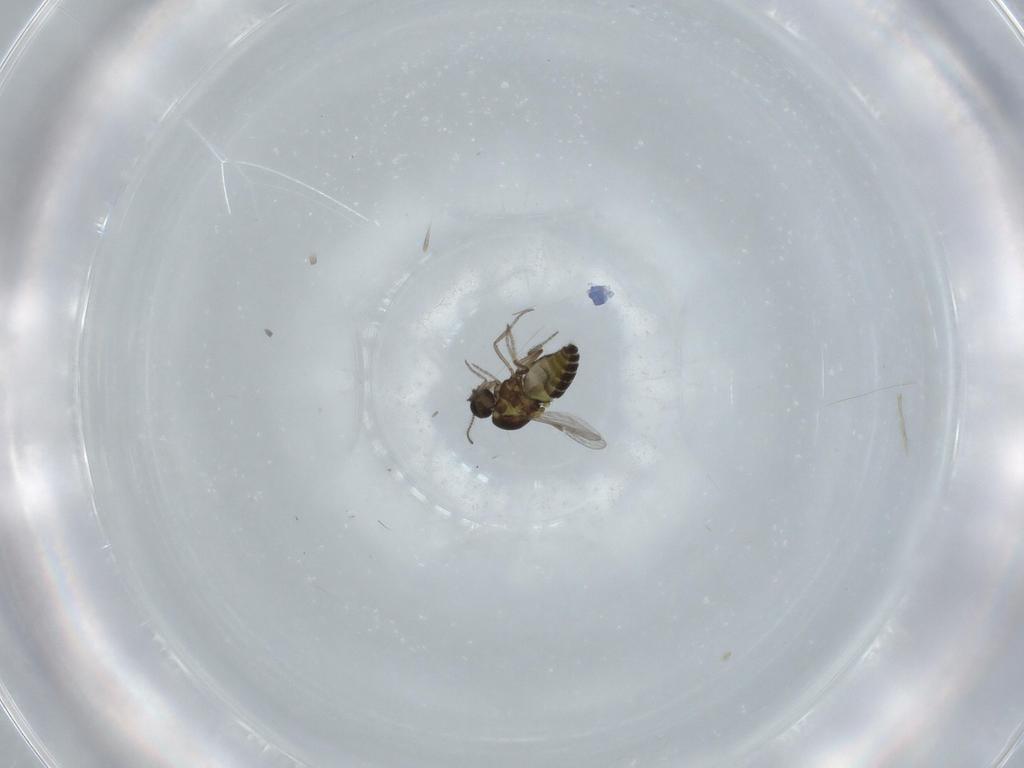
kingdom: Animalia
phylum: Arthropoda
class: Insecta
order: Diptera
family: Ceratopogonidae
